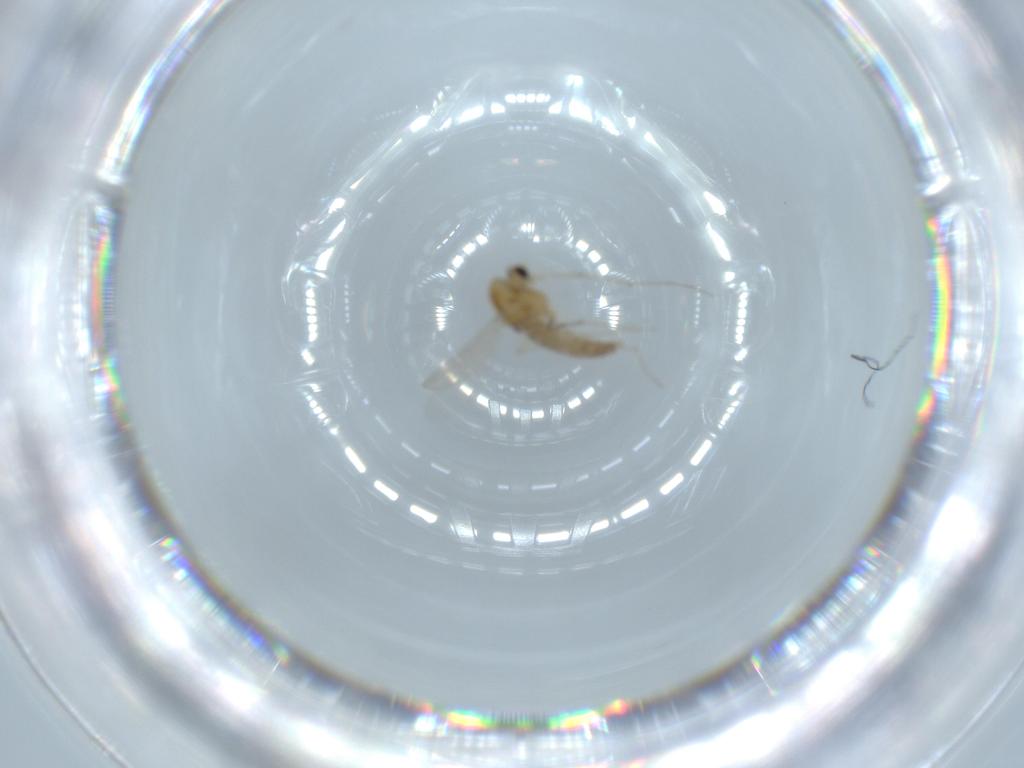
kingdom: Animalia
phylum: Arthropoda
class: Insecta
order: Diptera
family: Chironomidae
